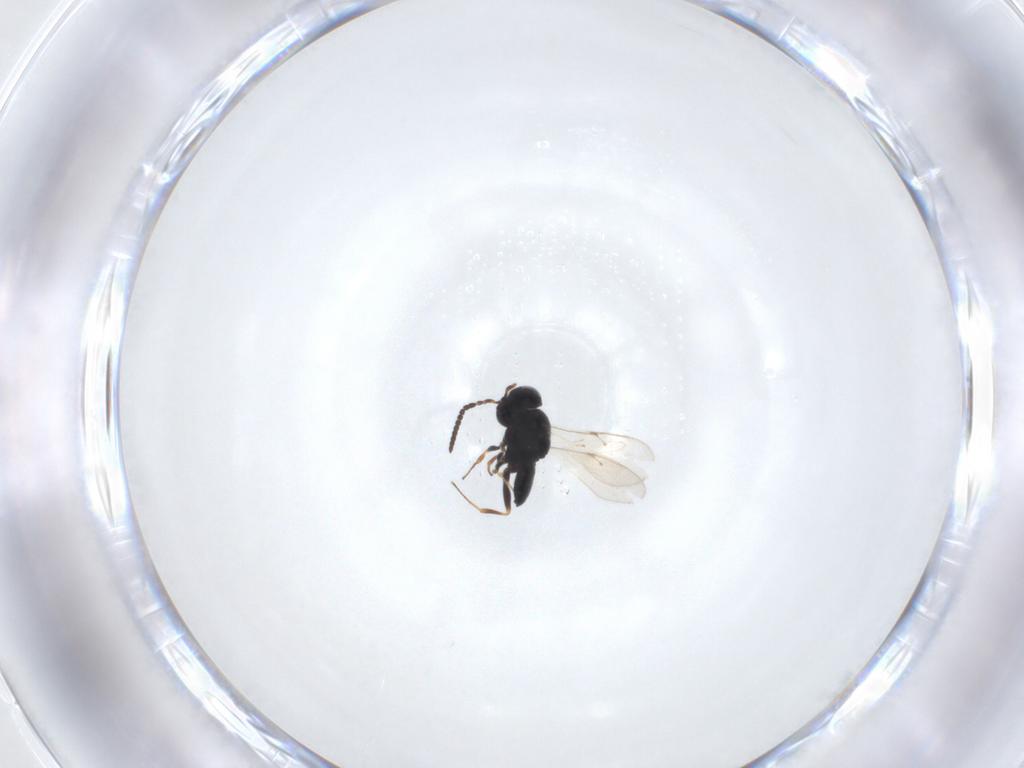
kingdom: Animalia
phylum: Arthropoda
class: Insecta
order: Hymenoptera
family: Scelionidae
